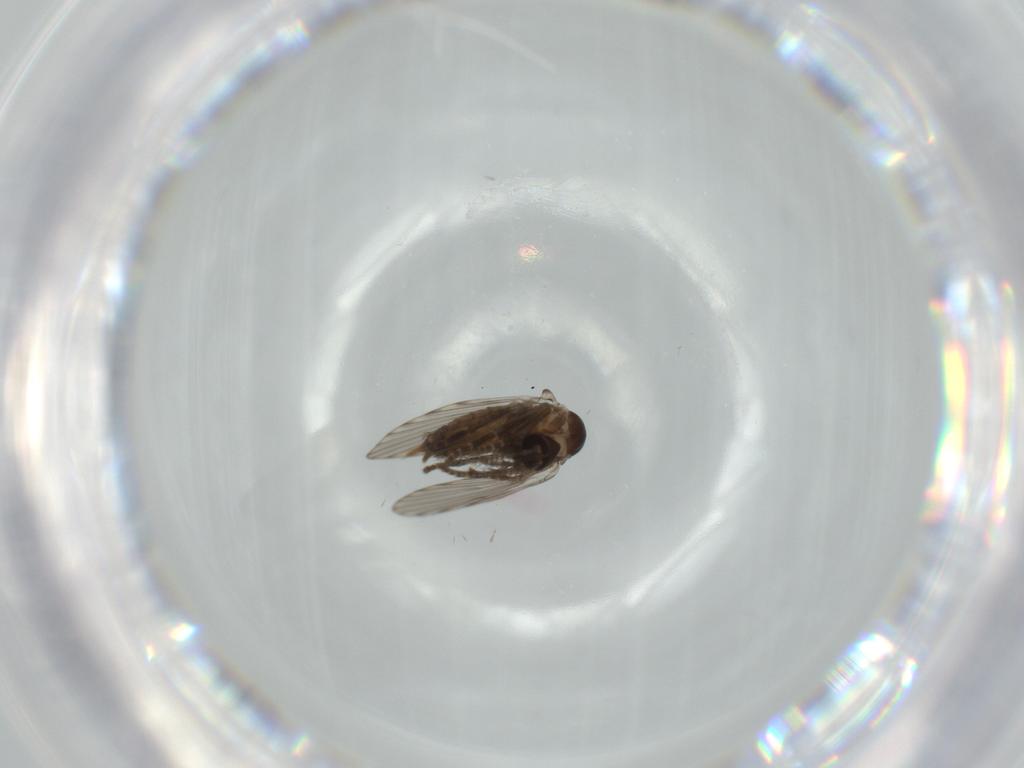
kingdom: Animalia
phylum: Arthropoda
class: Insecta
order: Diptera
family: Psychodidae
